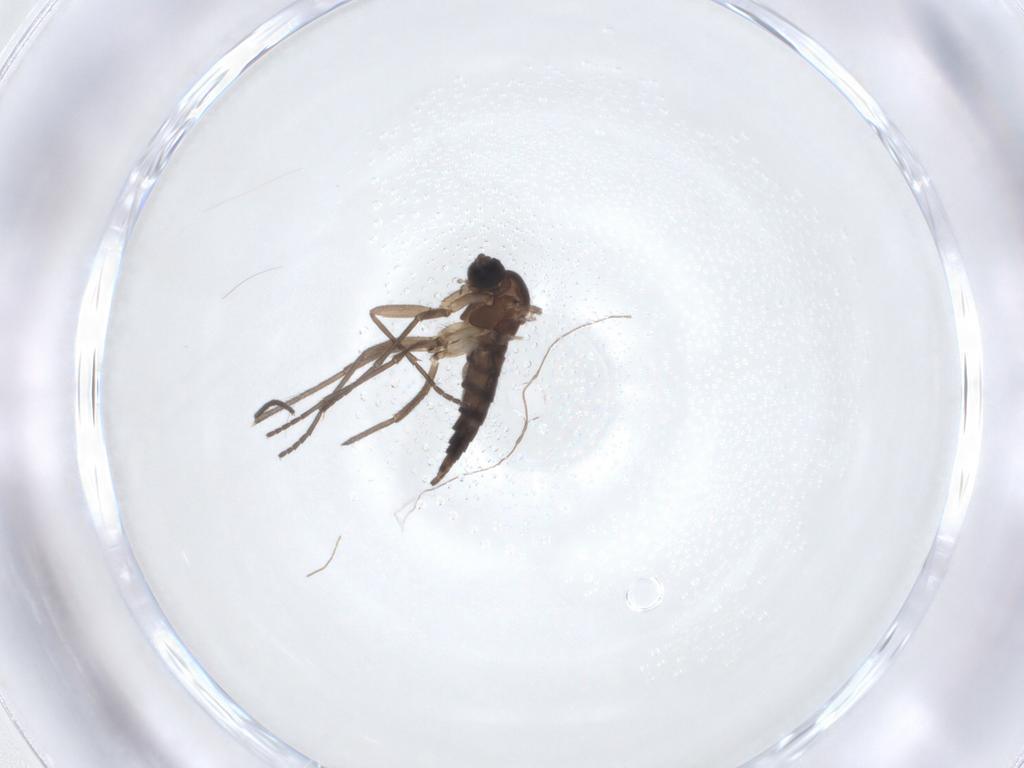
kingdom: Animalia
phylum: Arthropoda
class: Insecta
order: Diptera
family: Sciaridae
